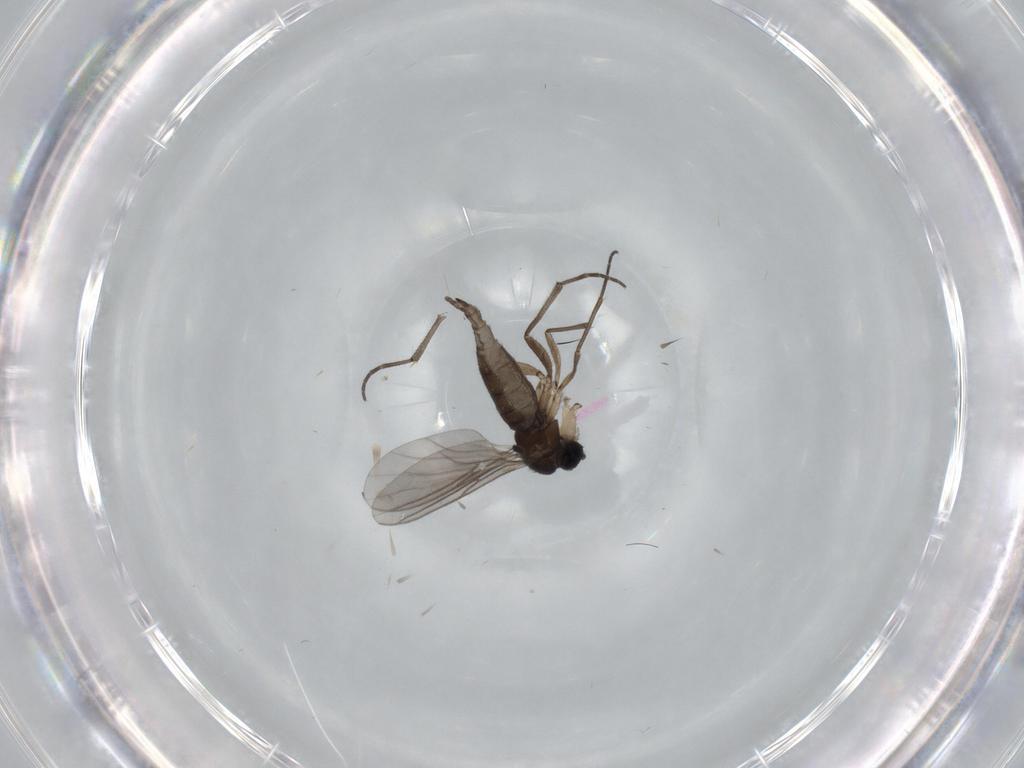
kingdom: Animalia
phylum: Arthropoda
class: Insecta
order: Diptera
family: Sciaridae
